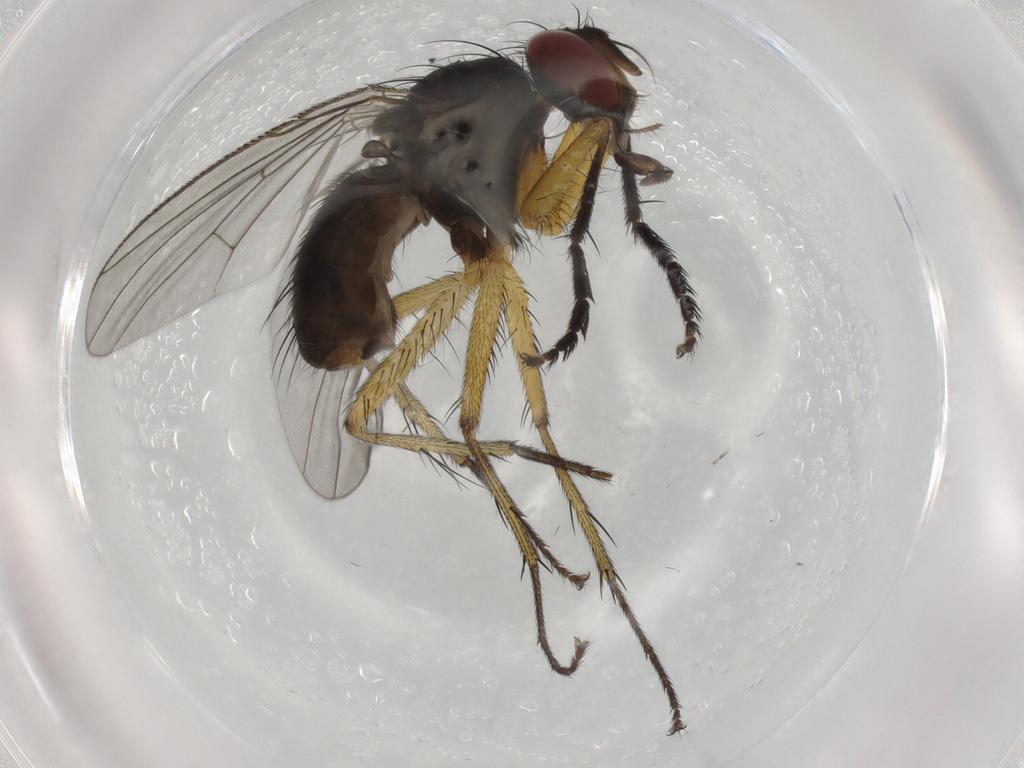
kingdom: Animalia
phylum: Arthropoda
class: Insecta
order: Diptera
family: Muscidae
